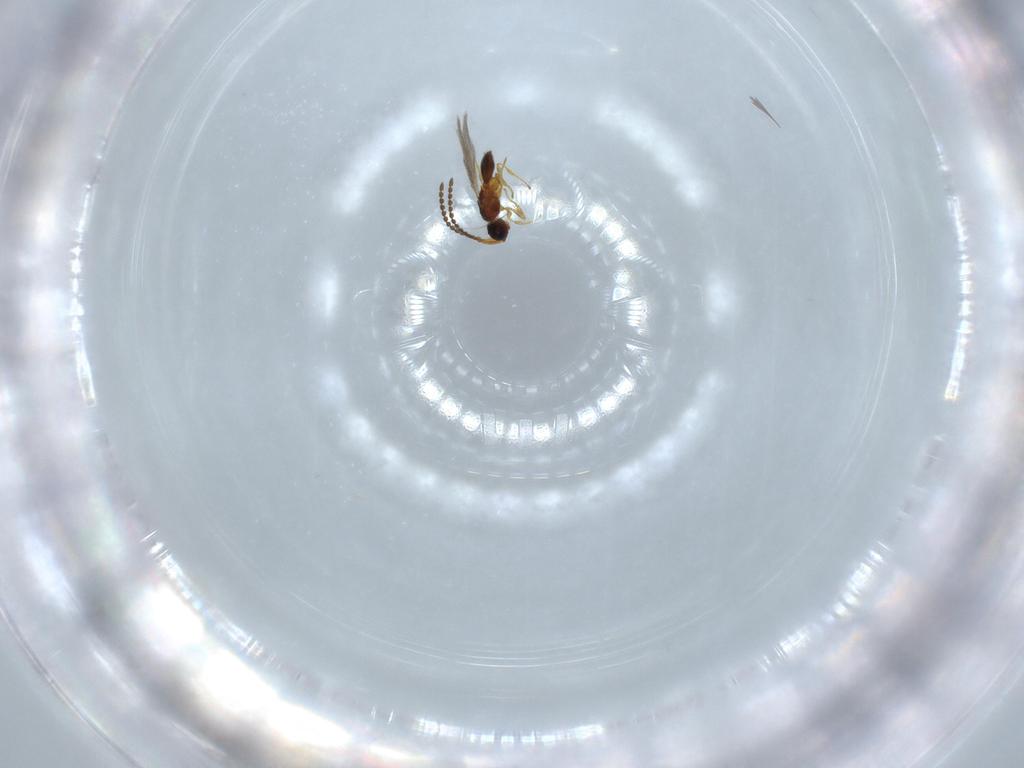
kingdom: Animalia
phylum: Arthropoda
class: Insecta
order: Hymenoptera
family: Diapriidae
